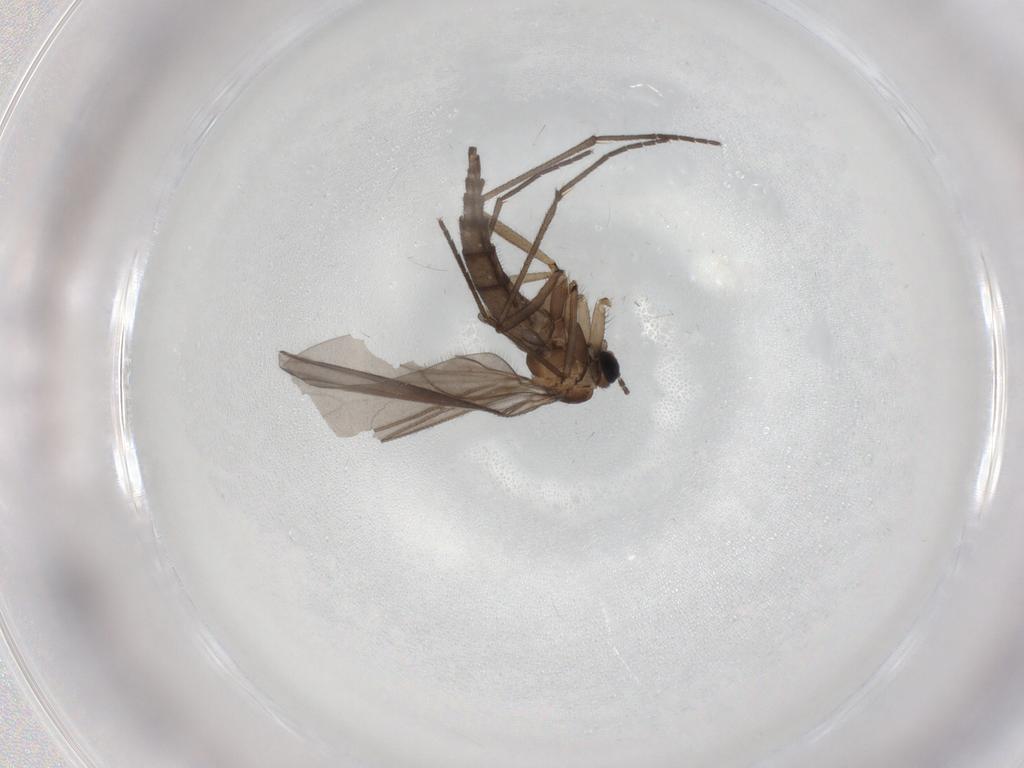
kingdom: Animalia
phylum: Arthropoda
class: Insecta
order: Diptera
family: Sciaridae
